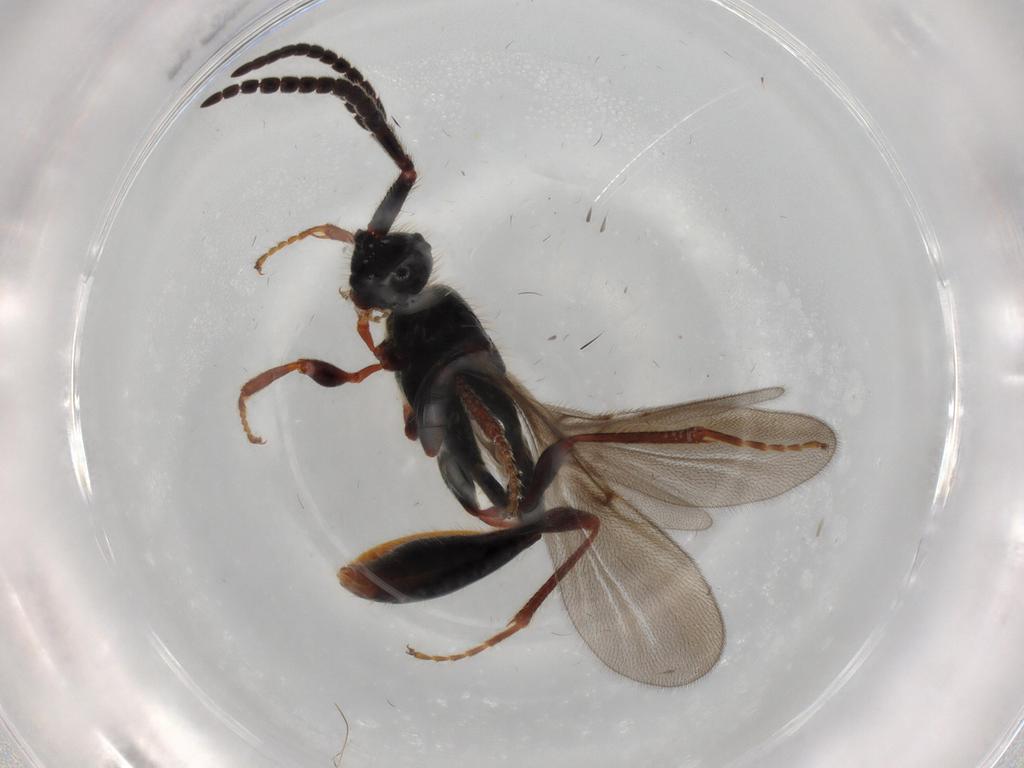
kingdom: Animalia
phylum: Arthropoda
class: Insecta
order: Hymenoptera
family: Diapriidae
